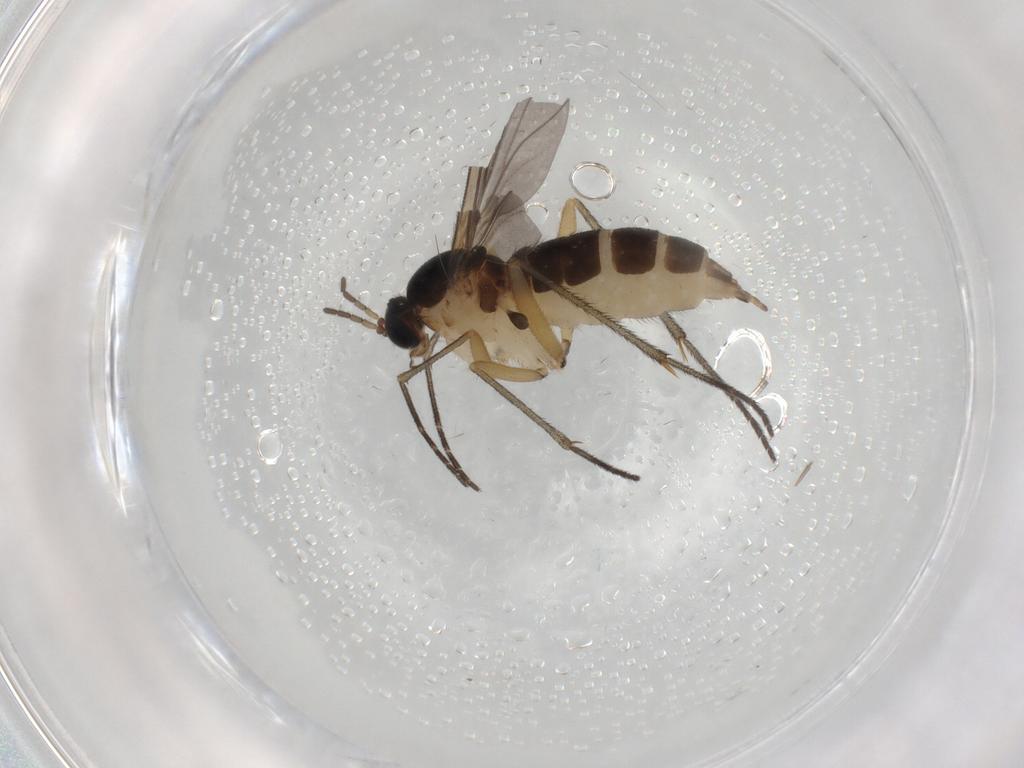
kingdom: Animalia
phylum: Arthropoda
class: Insecta
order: Diptera
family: Sciaridae
